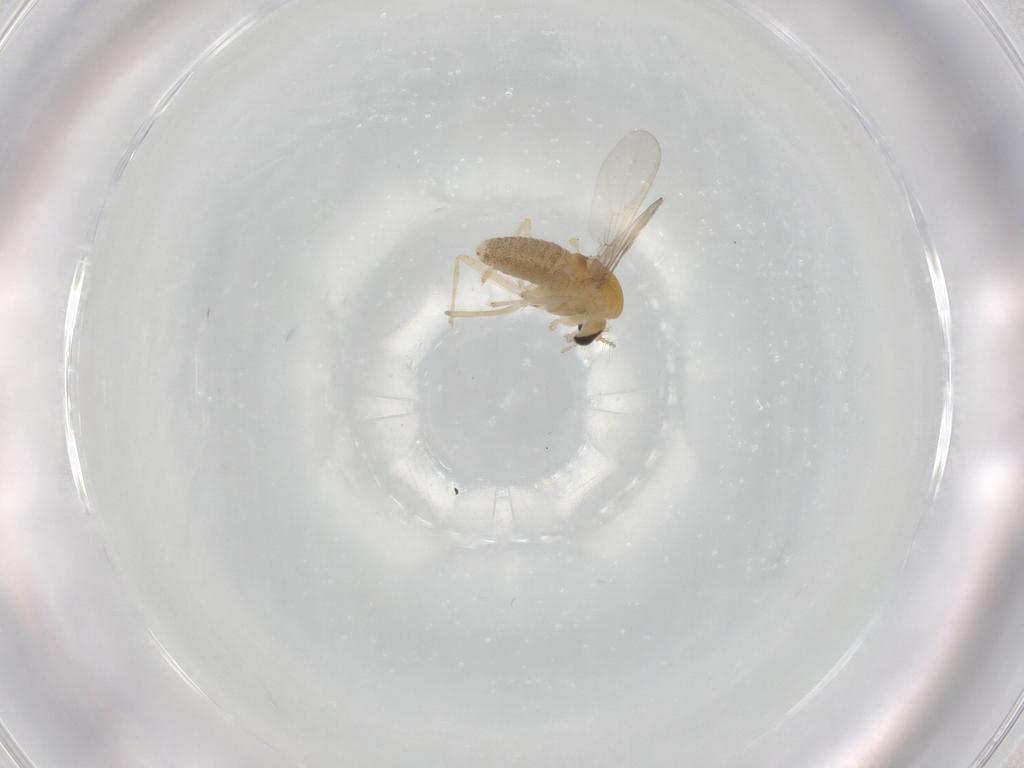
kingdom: Animalia
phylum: Arthropoda
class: Insecta
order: Diptera
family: Chironomidae
